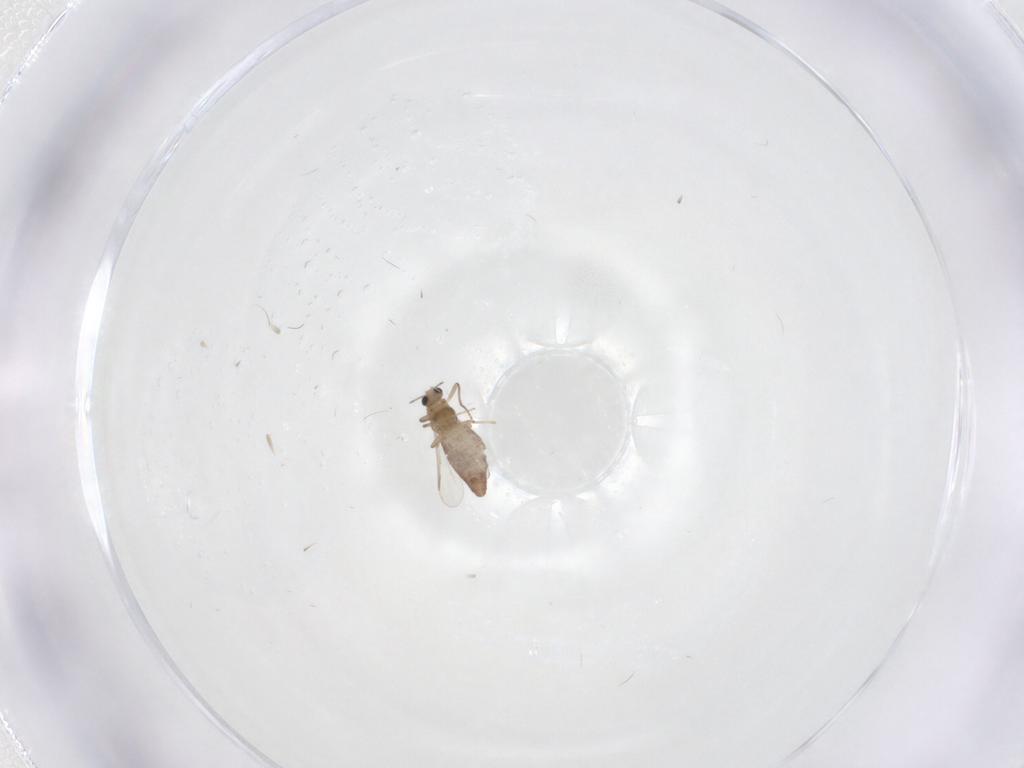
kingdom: Animalia
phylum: Arthropoda
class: Insecta
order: Diptera
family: Chironomidae
